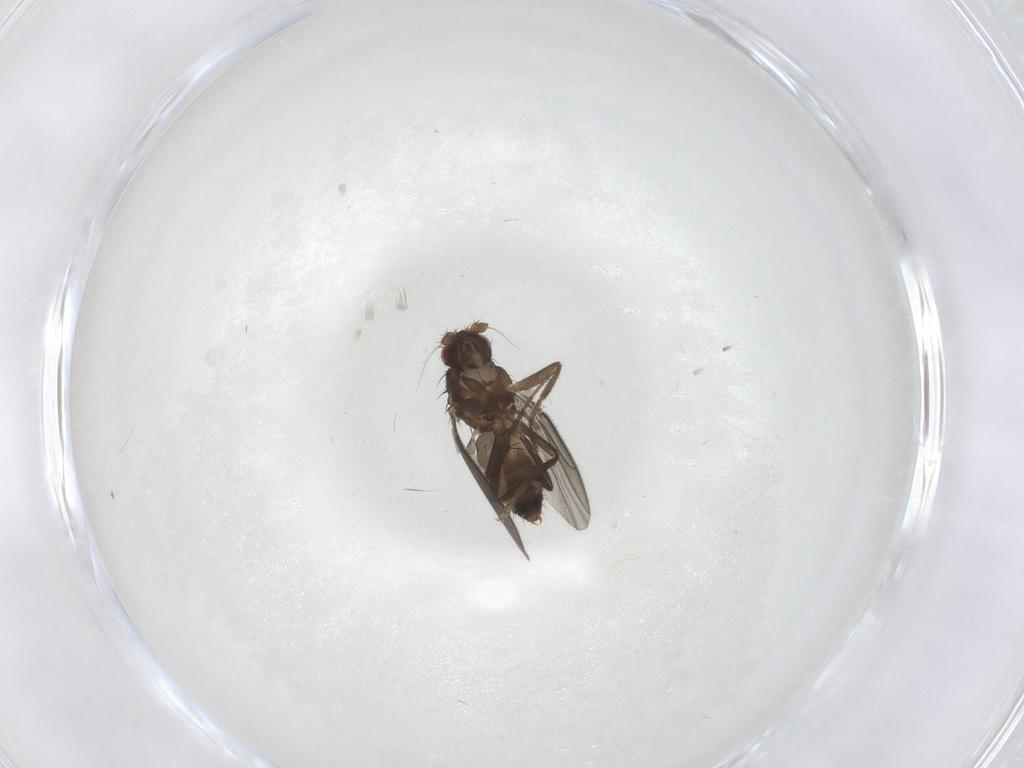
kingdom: Animalia
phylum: Arthropoda
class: Insecta
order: Diptera
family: Sphaeroceridae
